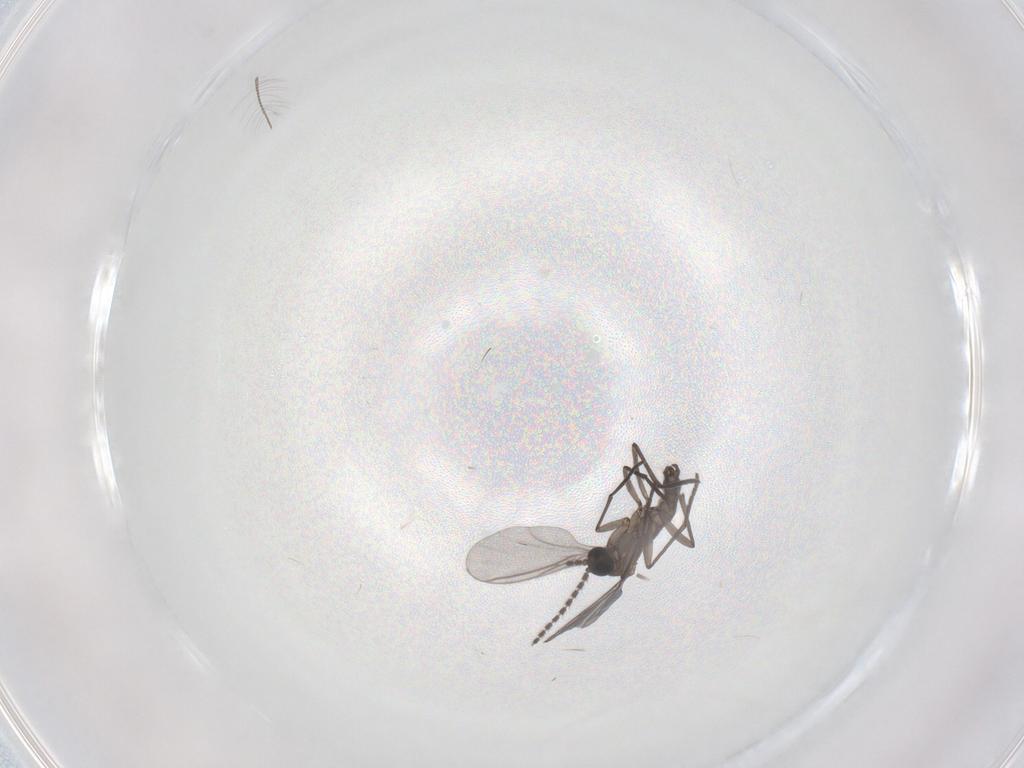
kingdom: Animalia
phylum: Arthropoda
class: Insecta
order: Diptera
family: Chironomidae
